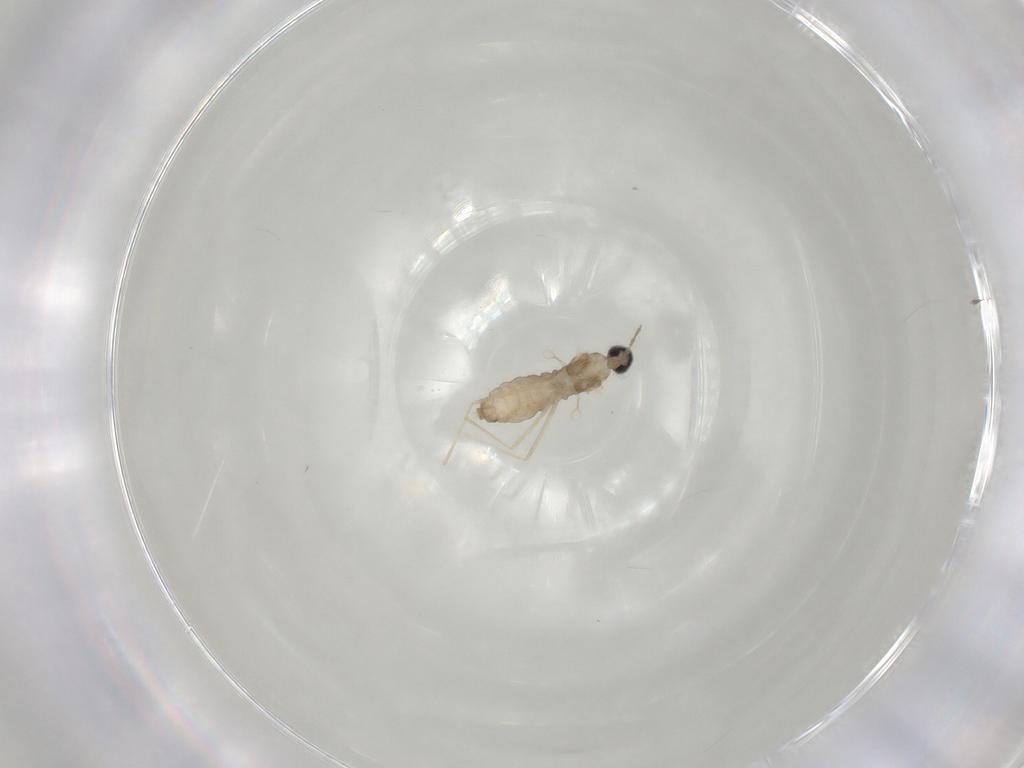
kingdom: Animalia
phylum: Arthropoda
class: Insecta
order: Diptera
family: Cecidomyiidae
